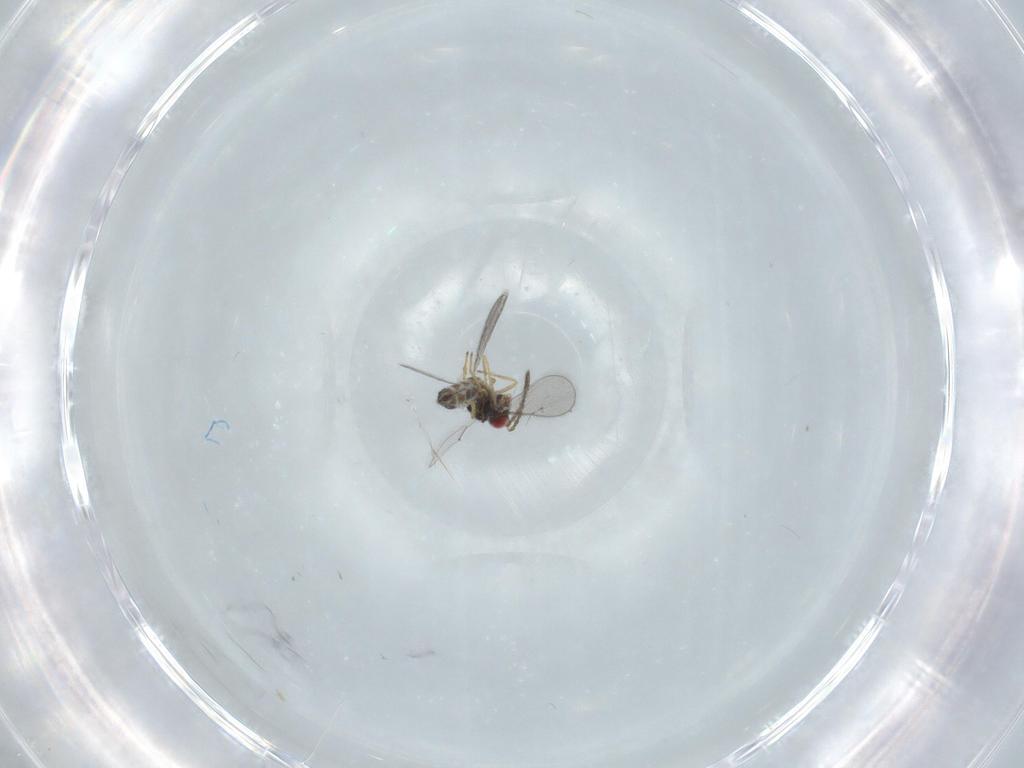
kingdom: Animalia
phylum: Arthropoda
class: Insecta
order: Hymenoptera
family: Eulophidae
